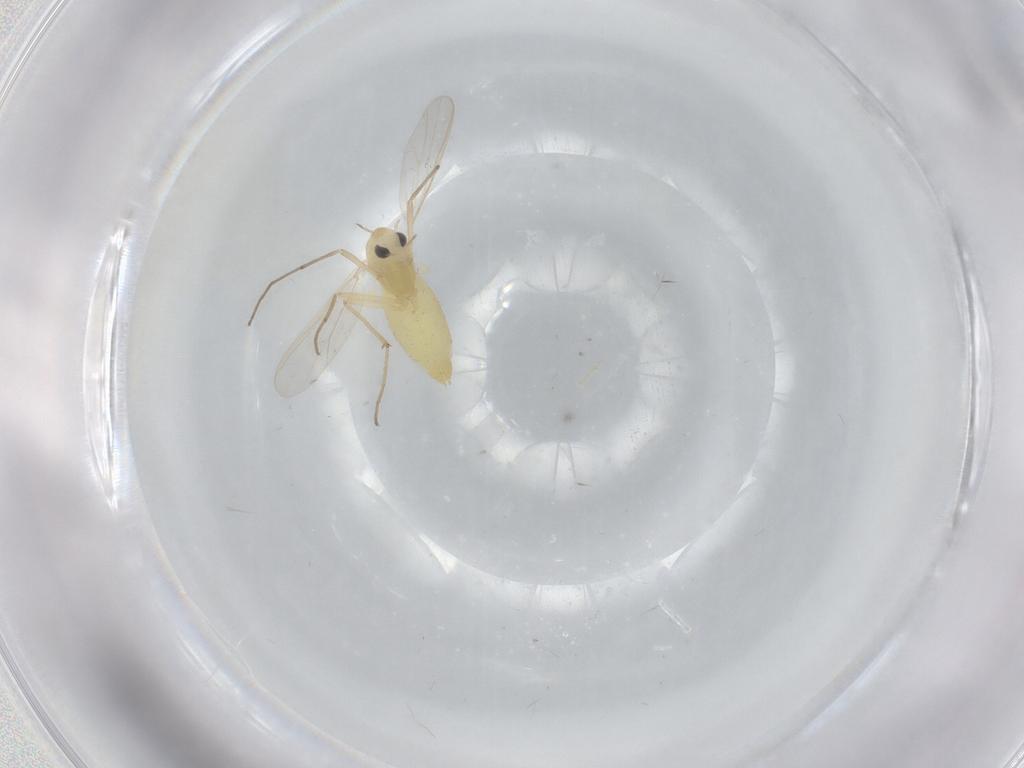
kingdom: Animalia
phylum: Arthropoda
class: Insecta
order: Diptera
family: Chironomidae
